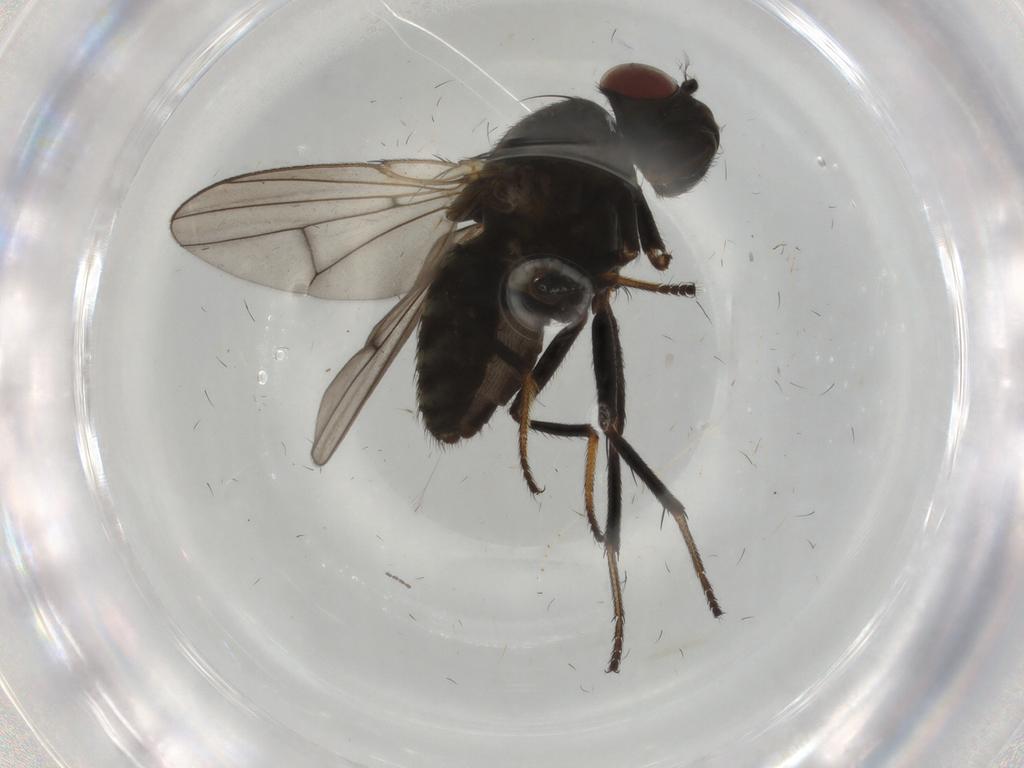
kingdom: Animalia
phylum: Arthropoda
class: Insecta
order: Diptera
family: Ephydridae
